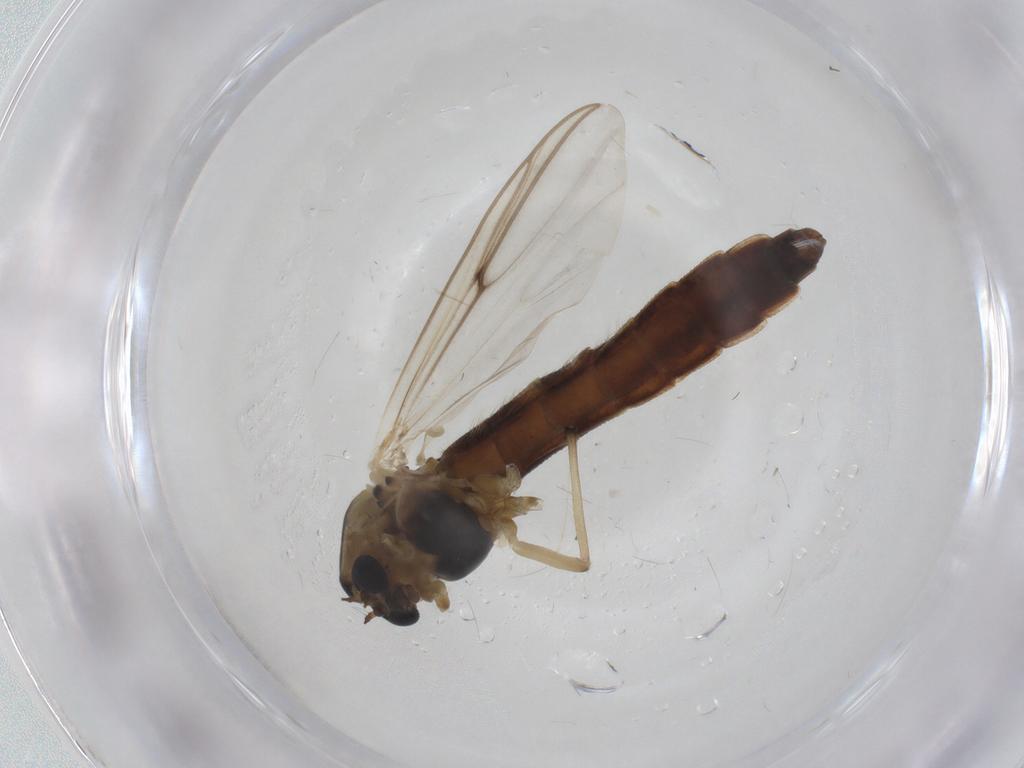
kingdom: Animalia
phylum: Arthropoda
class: Insecta
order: Diptera
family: Chironomidae
